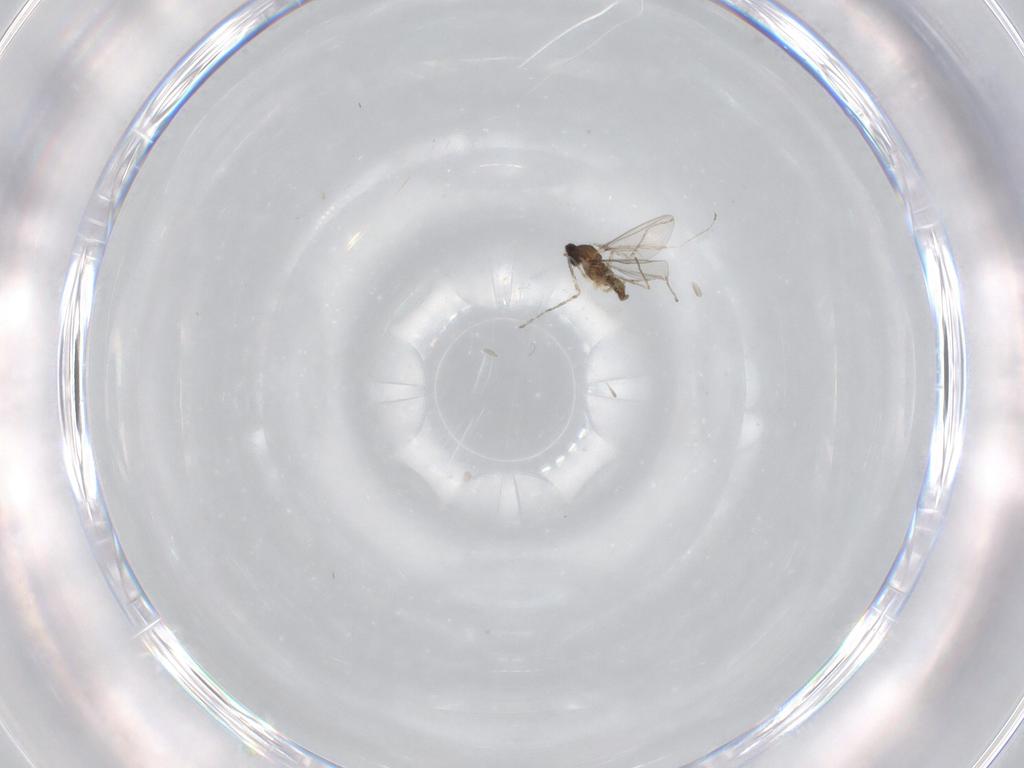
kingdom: Animalia
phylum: Arthropoda
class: Insecta
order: Diptera
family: Cecidomyiidae
